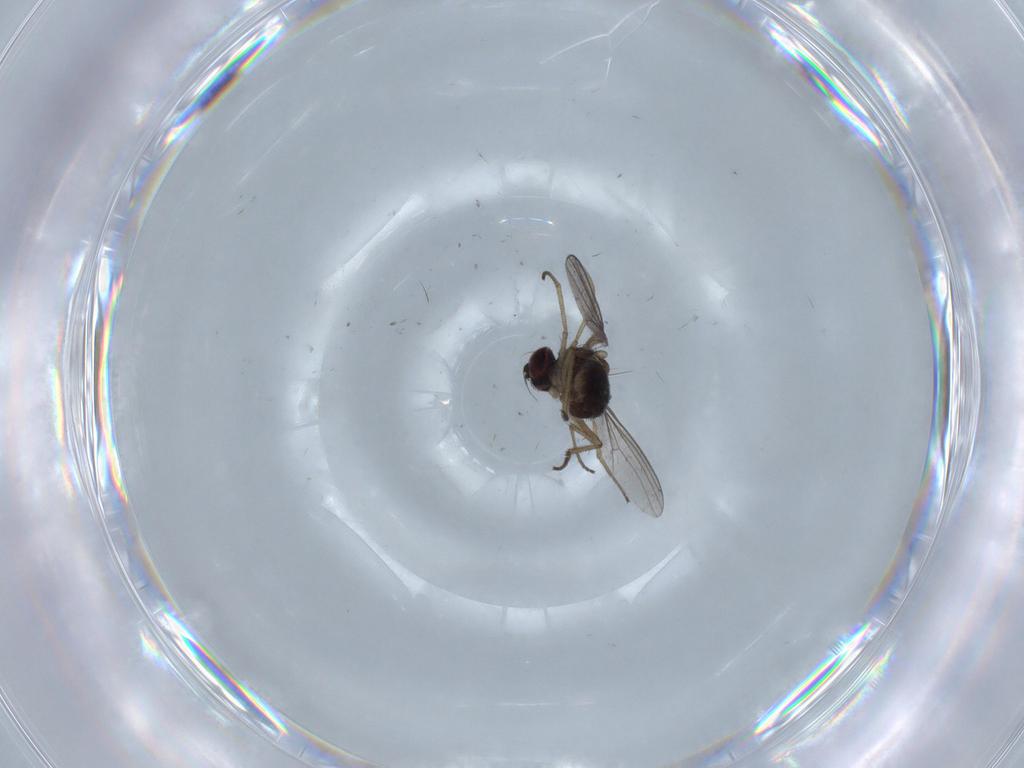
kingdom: Animalia
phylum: Arthropoda
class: Insecta
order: Diptera
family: Dolichopodidae
